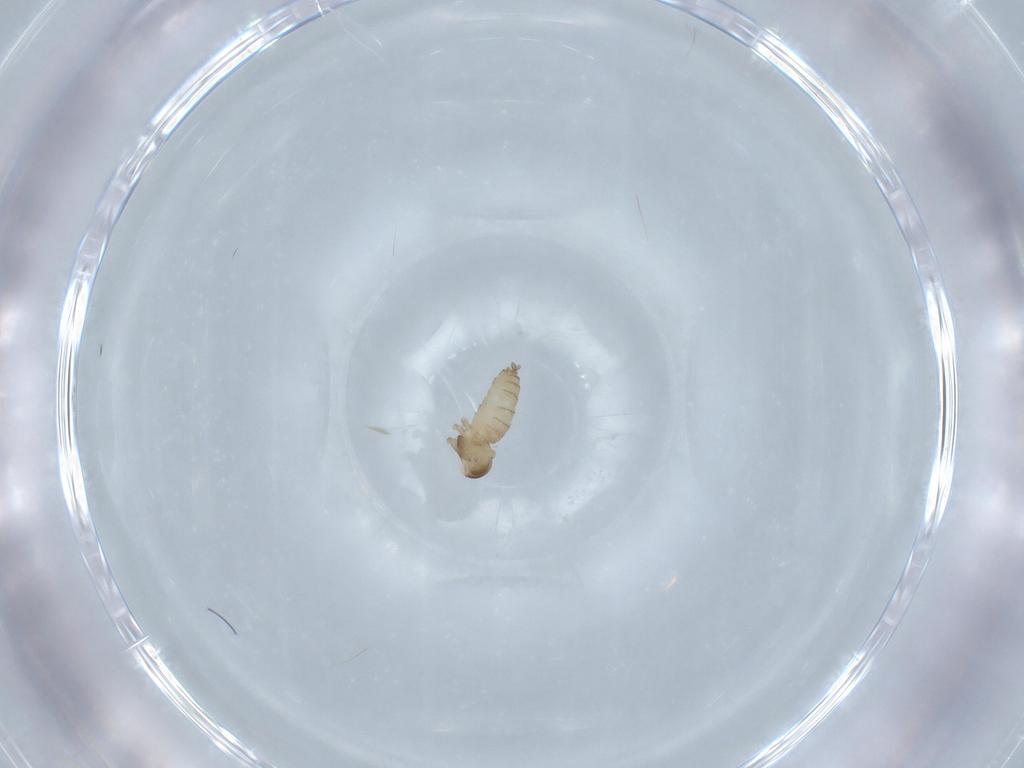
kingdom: Animalia
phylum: Arthropoda
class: Insecta
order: Diptera
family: Cecidomyiidae
